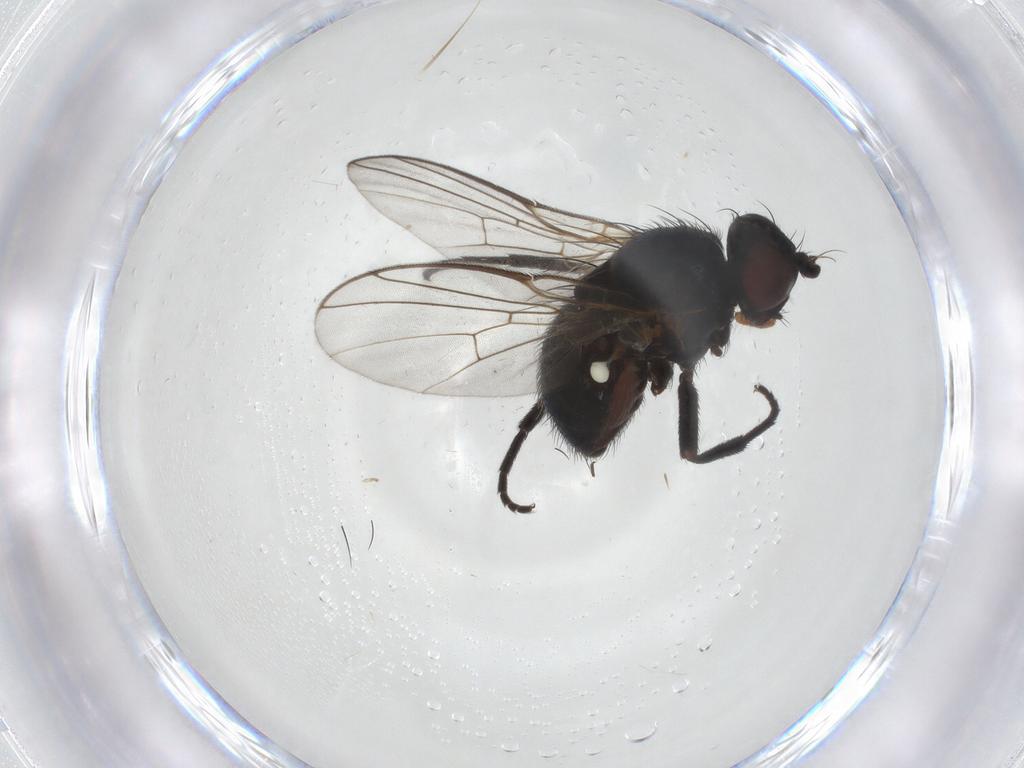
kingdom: Animalia
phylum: Arthropoda
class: Insecta
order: Diptera
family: Agromyzidae
